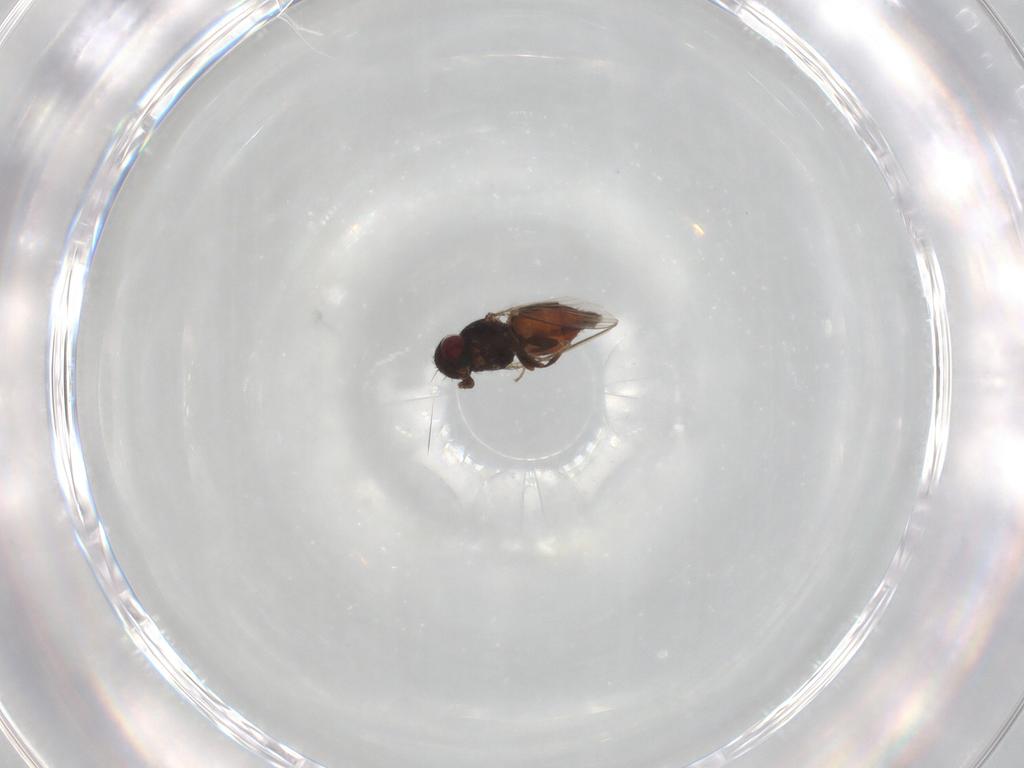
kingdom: Animalia
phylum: Arthropoda
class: Insecta
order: Diptera
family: Carnidae
